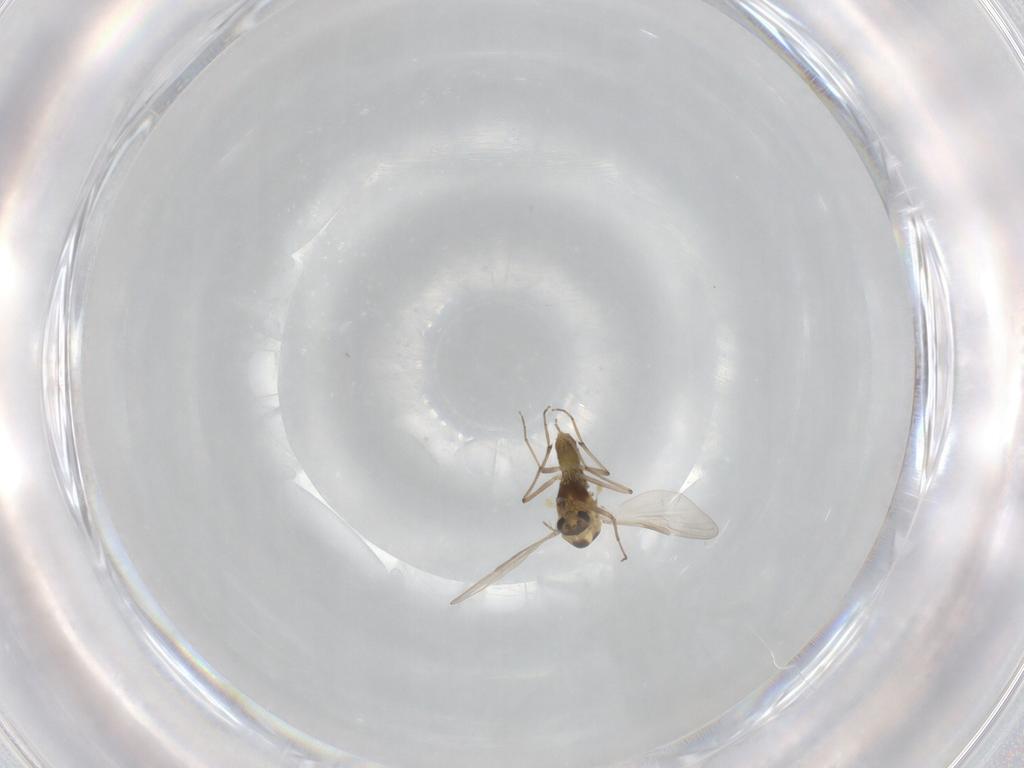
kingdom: Animalia
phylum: Arthropoda
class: Insecta
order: Diptera
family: Chironomidae
